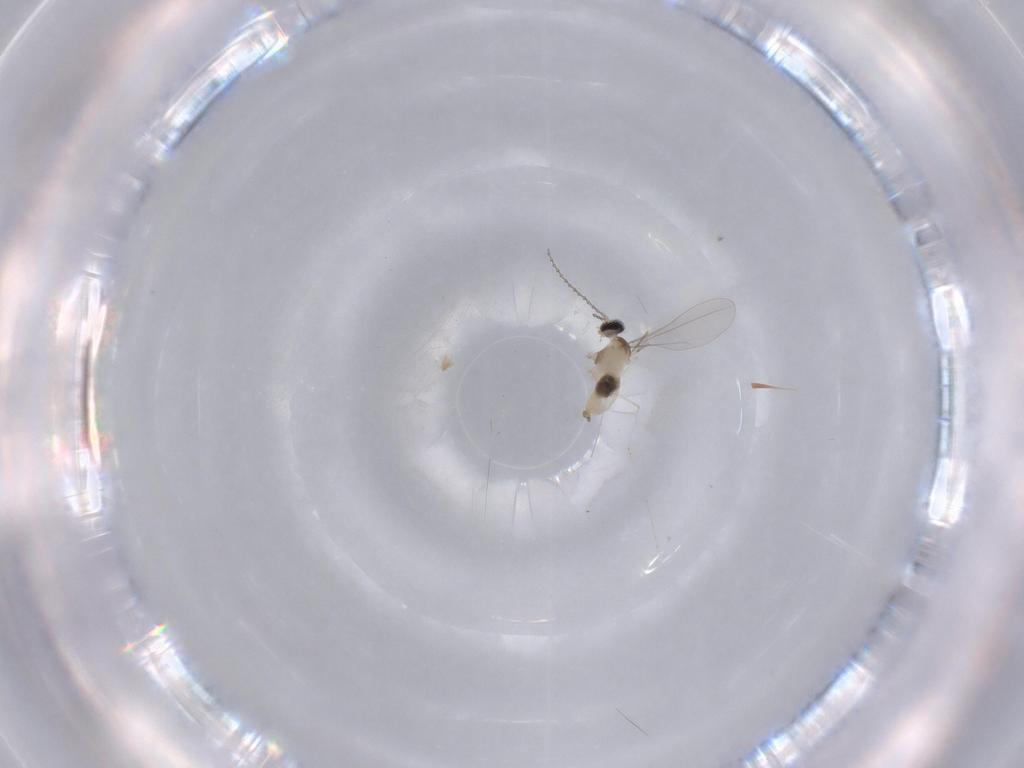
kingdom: Animalia
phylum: Arthropoda
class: Insecta
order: Diptera
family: Cecidomyiidae
